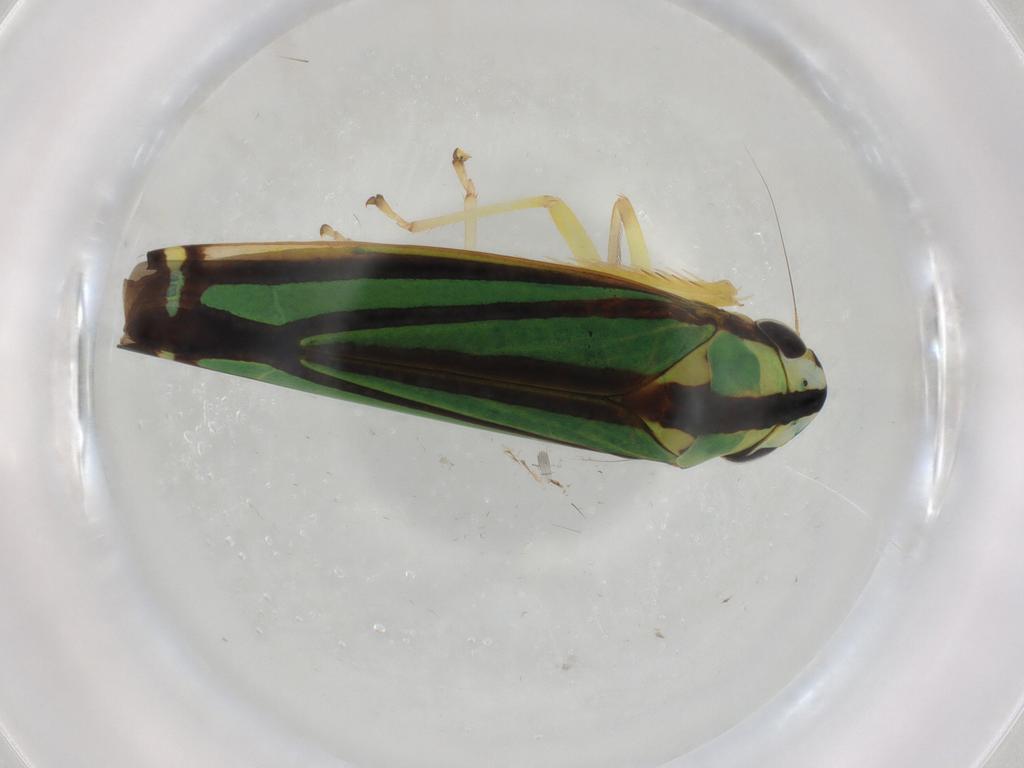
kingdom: Animalia
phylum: Arthropoda
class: Insecta
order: Hemiptera
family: Cicadellidae
